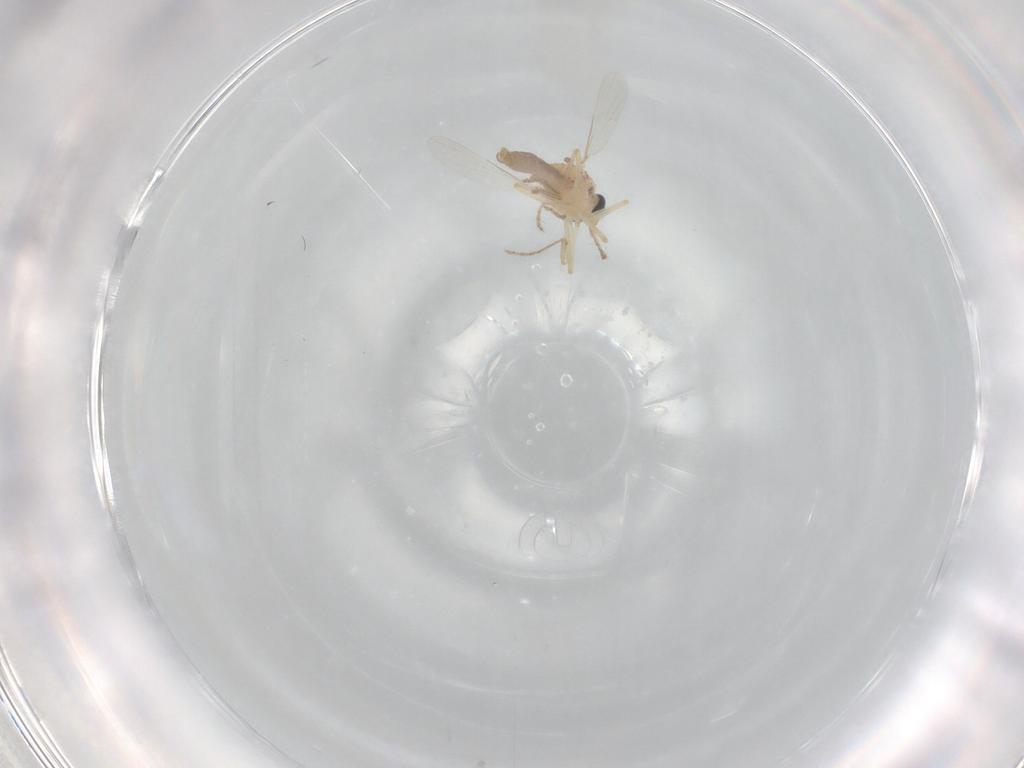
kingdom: Animalia
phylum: Arthropoda
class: Insecta
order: Diptera
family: Ceratopogonidae
